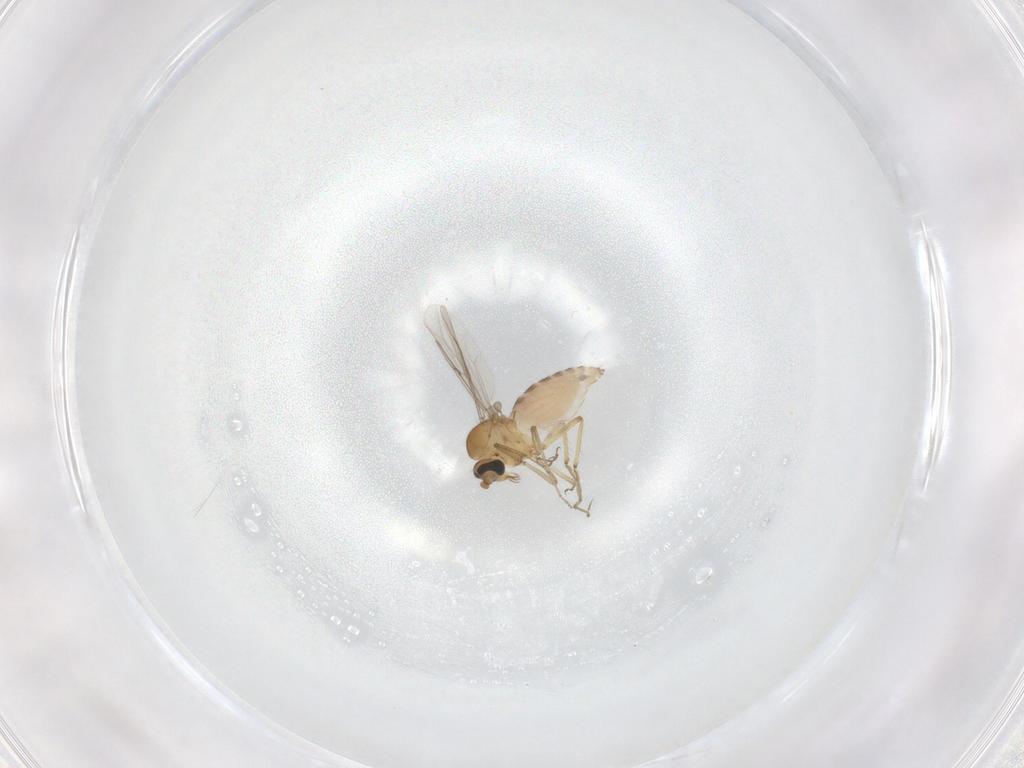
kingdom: Animalia
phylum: Arthropoda
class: Insecta
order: Diptera
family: Ceratopogonidae
